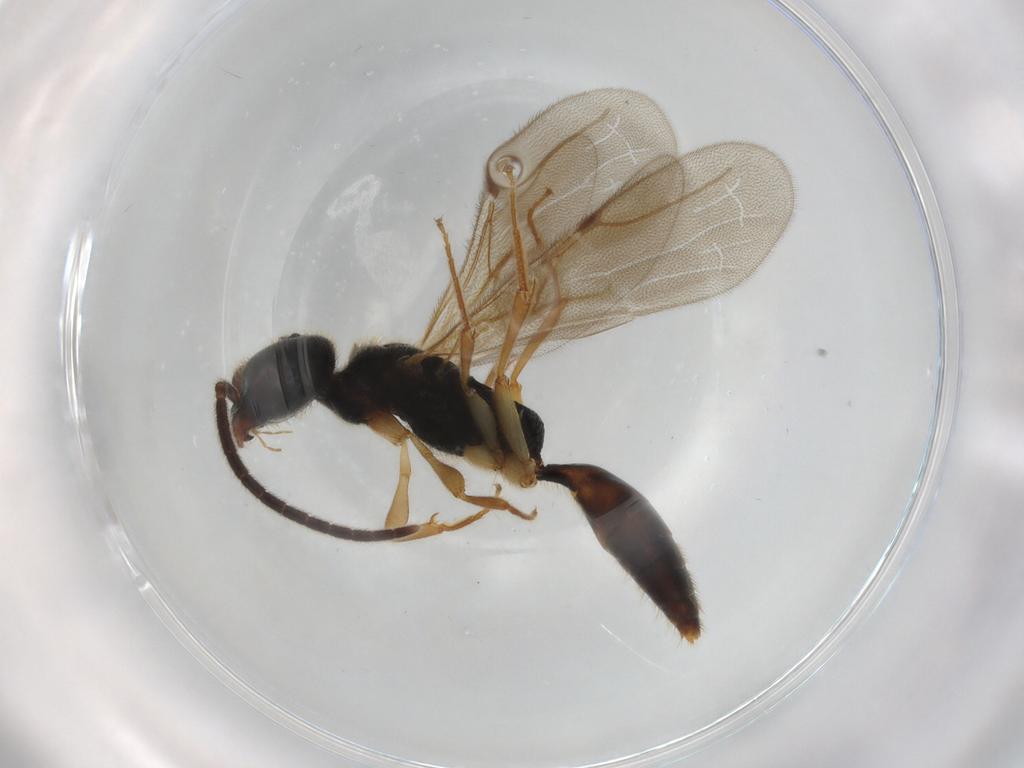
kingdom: Animalia
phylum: Arthropoda
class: Insecta
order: Hymenoptera
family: Bethylidae
